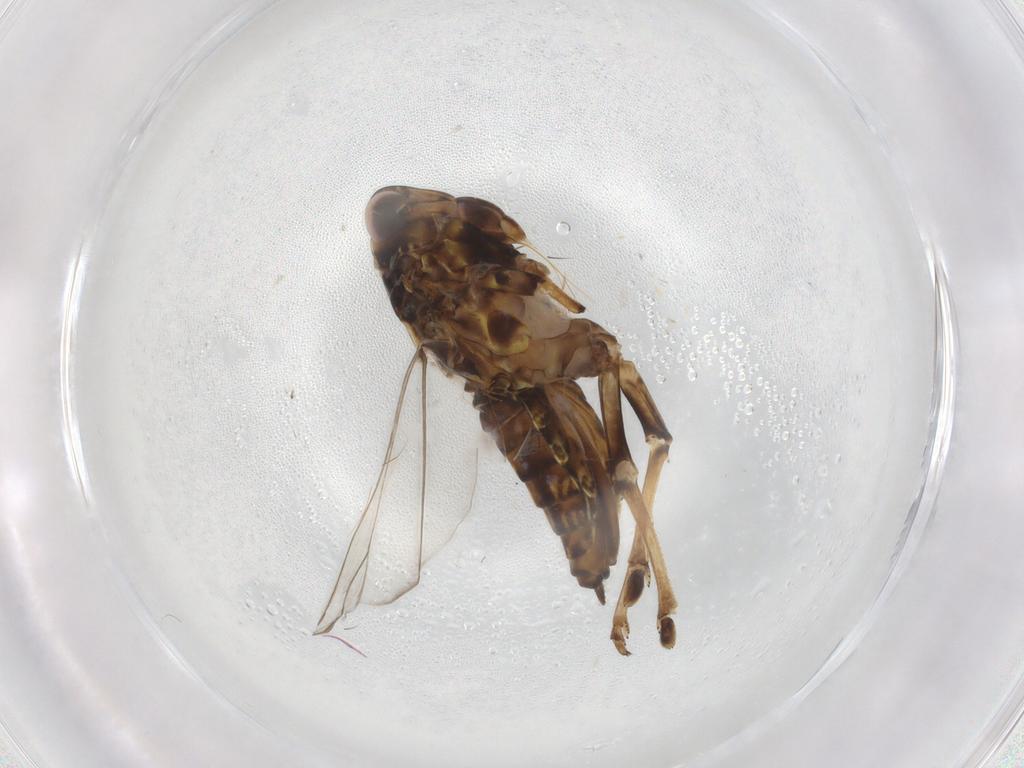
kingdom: Animalia
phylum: Arthropoda
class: Insecta
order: Hemiptera
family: Delphacidae
